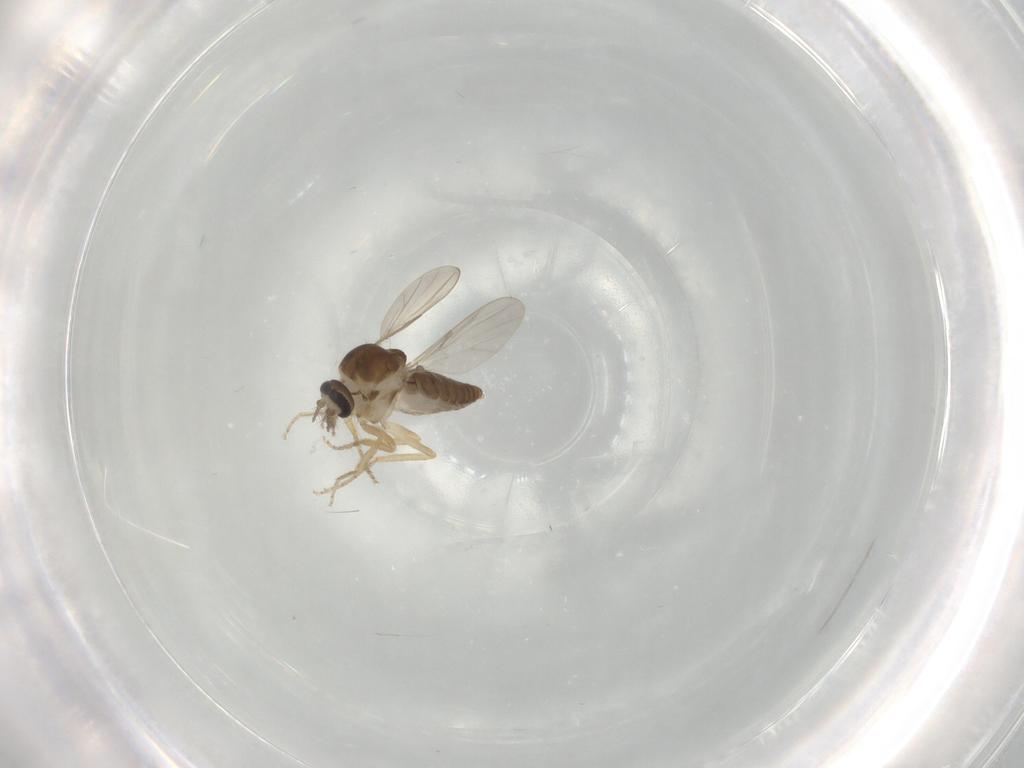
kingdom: Animalia
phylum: Arthropoda
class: Insecta
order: Diptera
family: Ceratopogonidae
